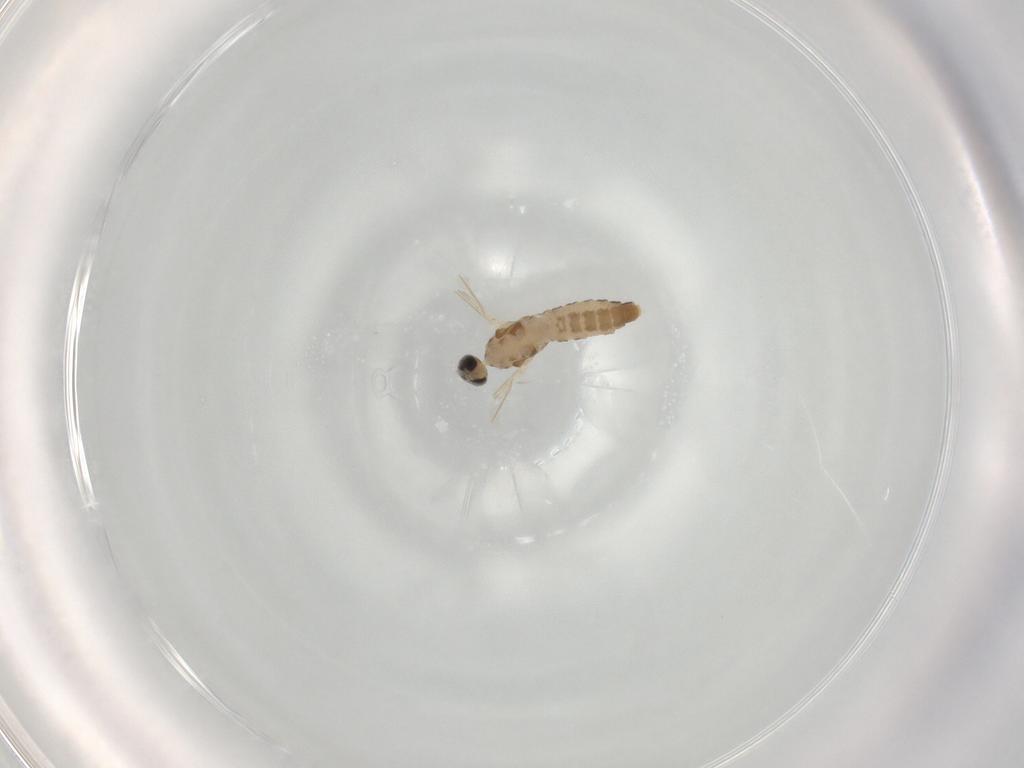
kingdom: Animalia
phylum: Arthropoda
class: Insecta
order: Diptera
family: Cecidomyiidae
